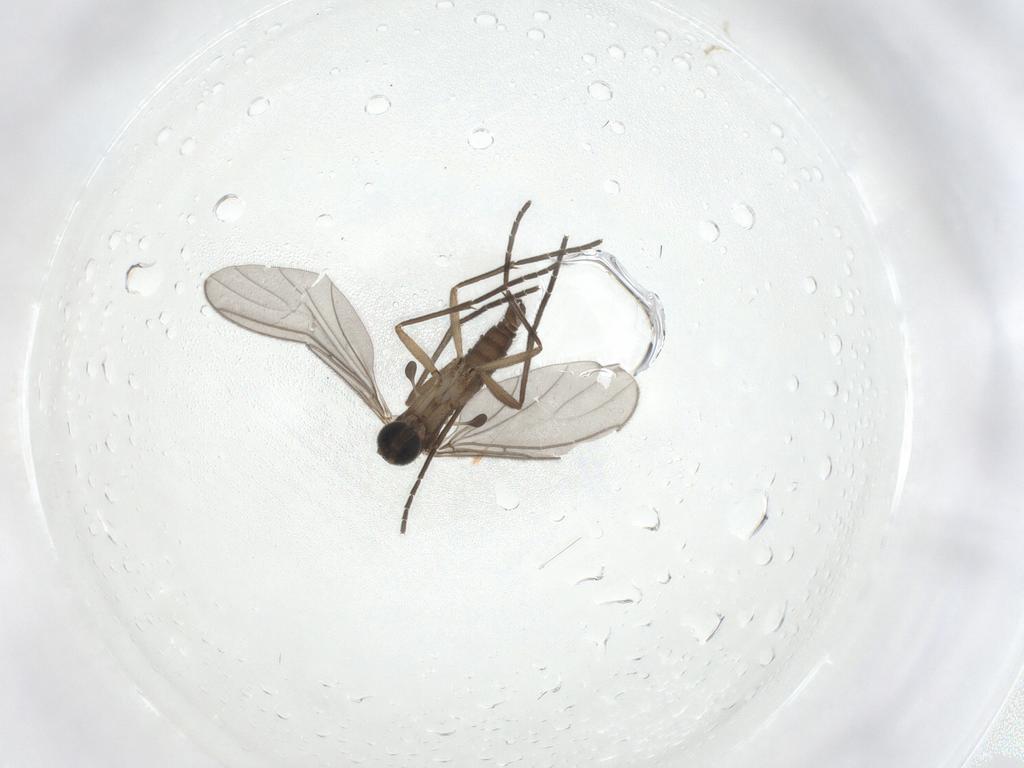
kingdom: Animalia
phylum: Arthropoda
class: Insecta
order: Diptera
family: Sciaridae
